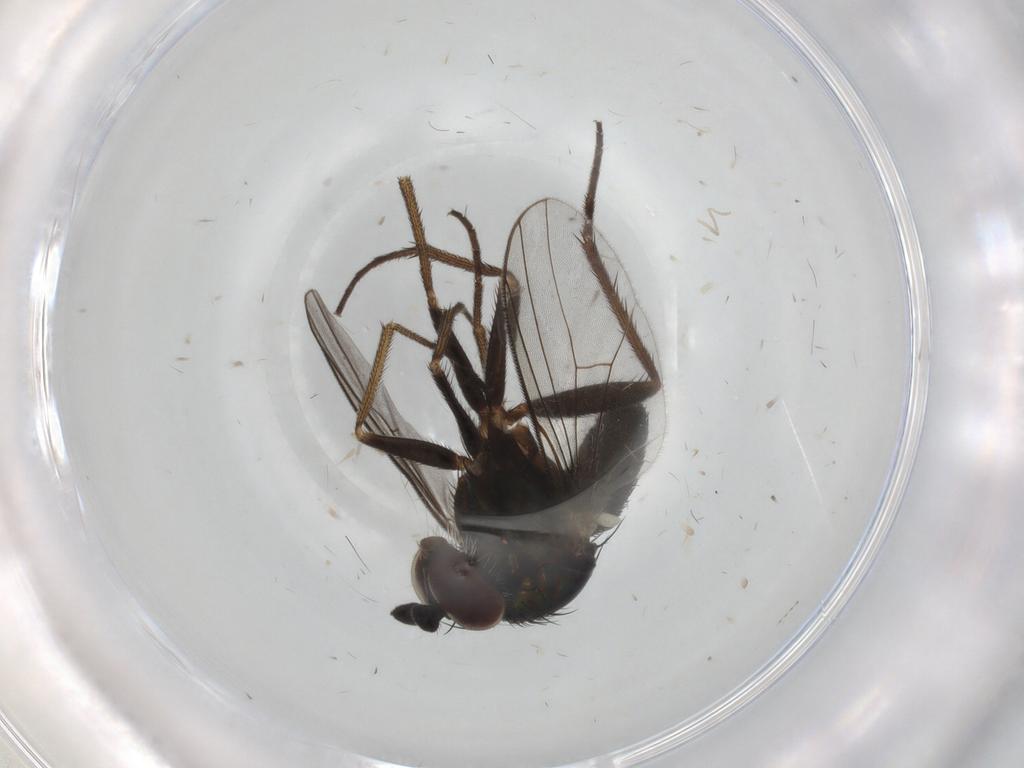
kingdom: Animalia
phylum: Arthropoda
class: Insecta
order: Diptera
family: Dolichopodidae
